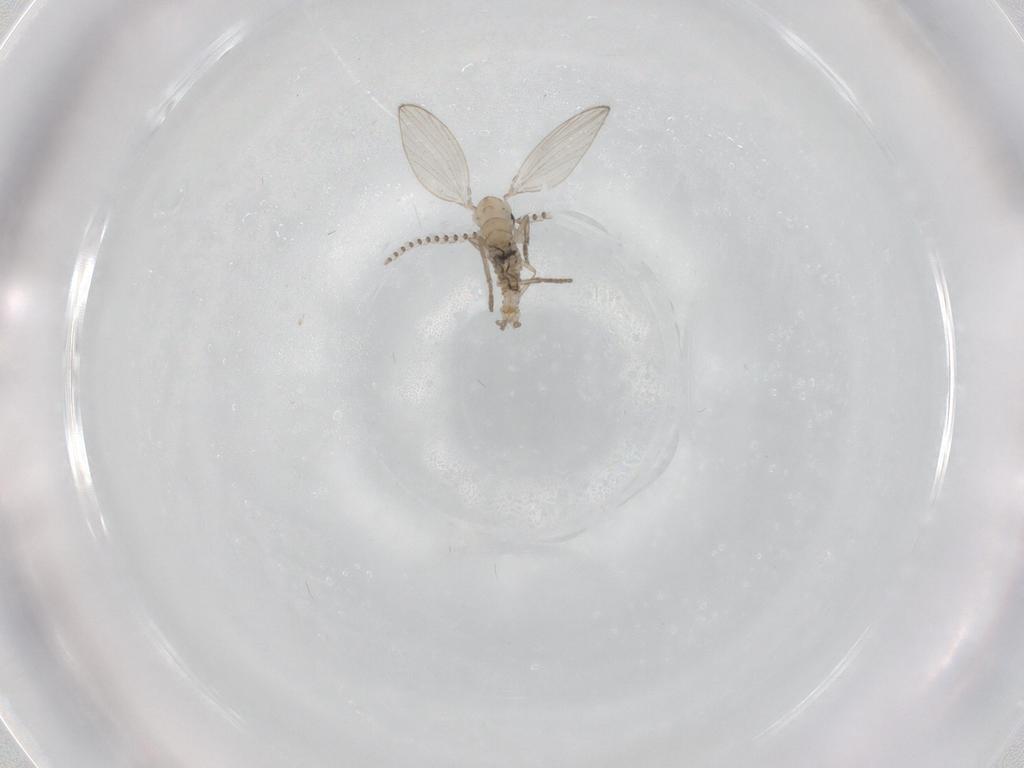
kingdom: Animalia
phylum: Arthropoda
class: Insecta
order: Diptera
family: Psychodidae
